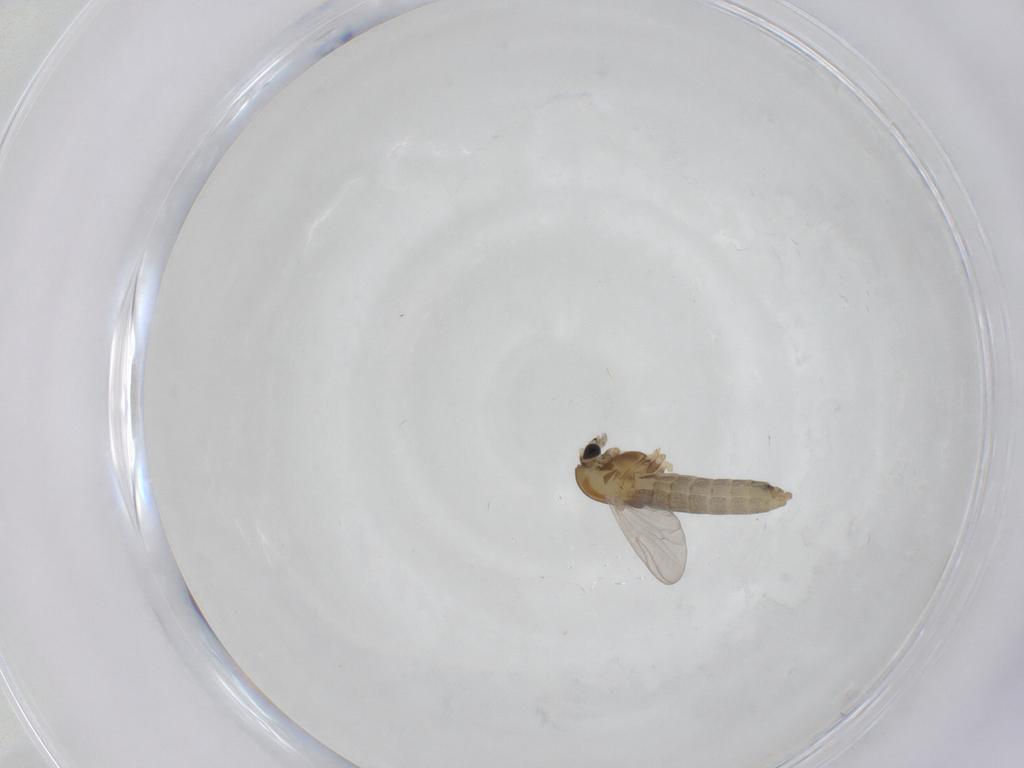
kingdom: Animalia
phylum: Arthropoda
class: Insecta
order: Diptera
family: Chironomidae
